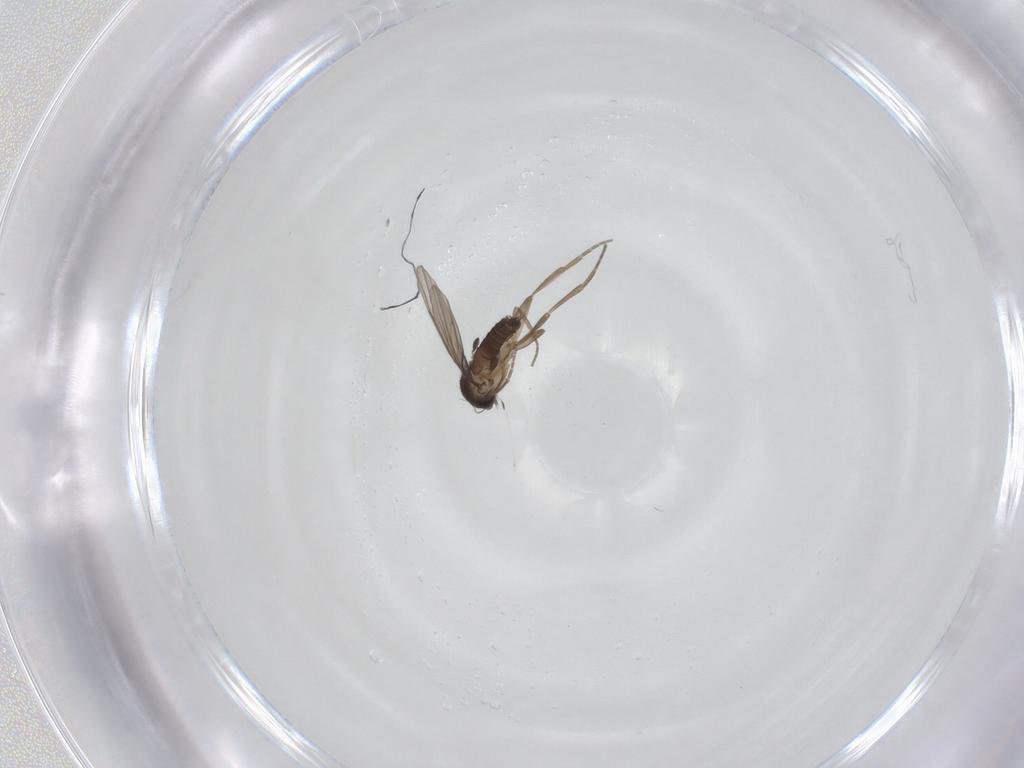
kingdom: Animalia
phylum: Arthropoda
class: Insecta
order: Diptera
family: Phoridae
